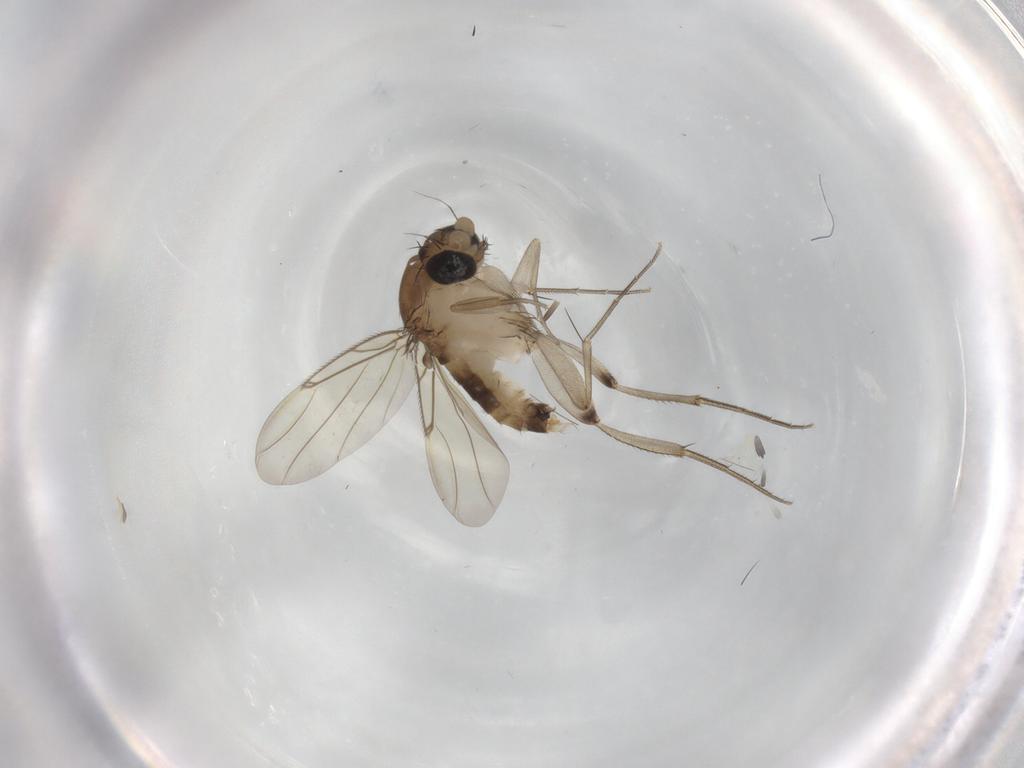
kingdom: Animalia
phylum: Arthropoda
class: Insecta
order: Diptera
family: Phoridae
